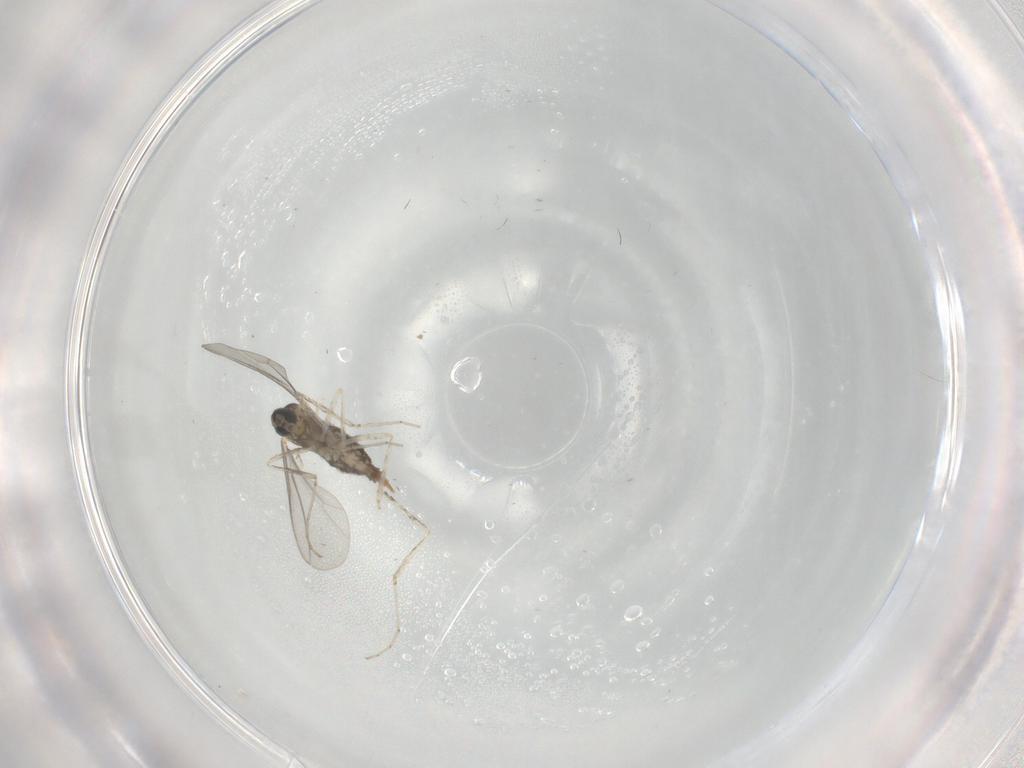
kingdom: Animalia
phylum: Arthropoda
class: Insecta
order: Diptera
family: Cecidomyiidae
